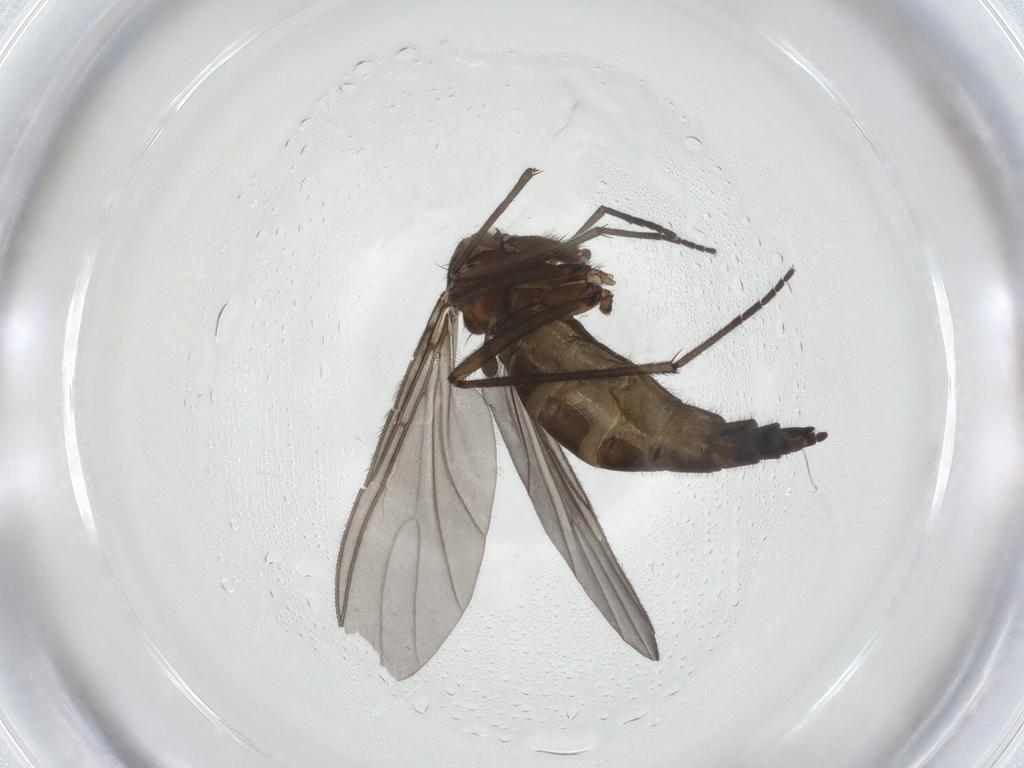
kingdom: Animalia
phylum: Arthropoda
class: Insecta
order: Diptera
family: Sciaridae
